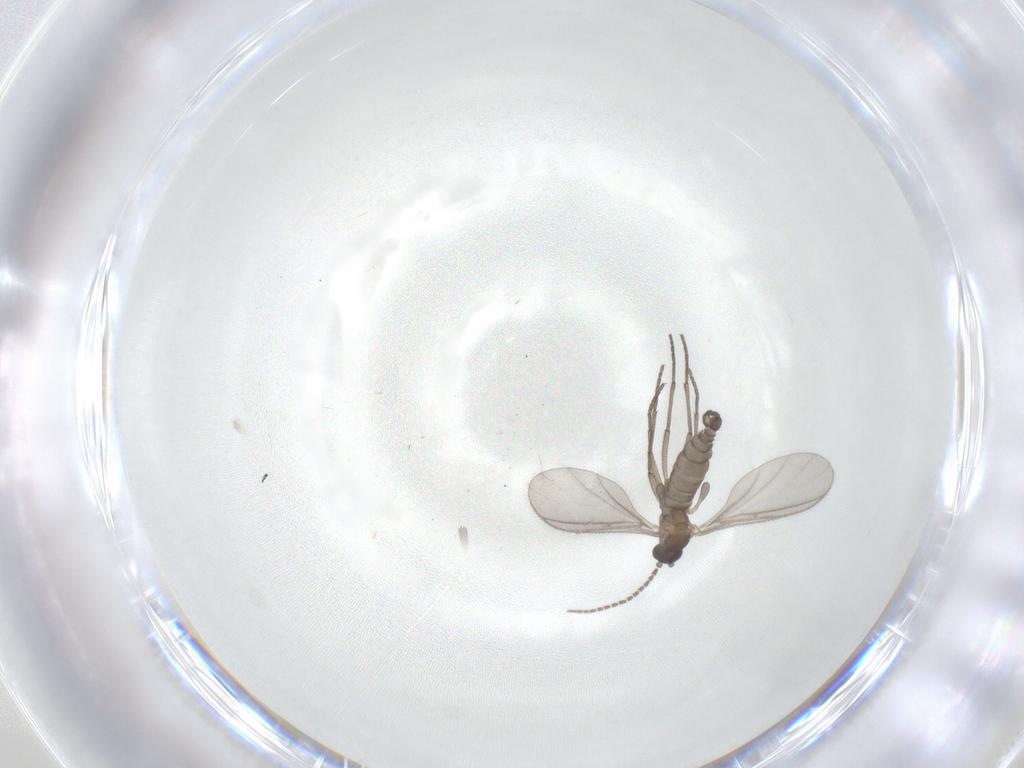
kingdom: Animalia
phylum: Arthropoda
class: Insecta
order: Diptera
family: Sciaridae
